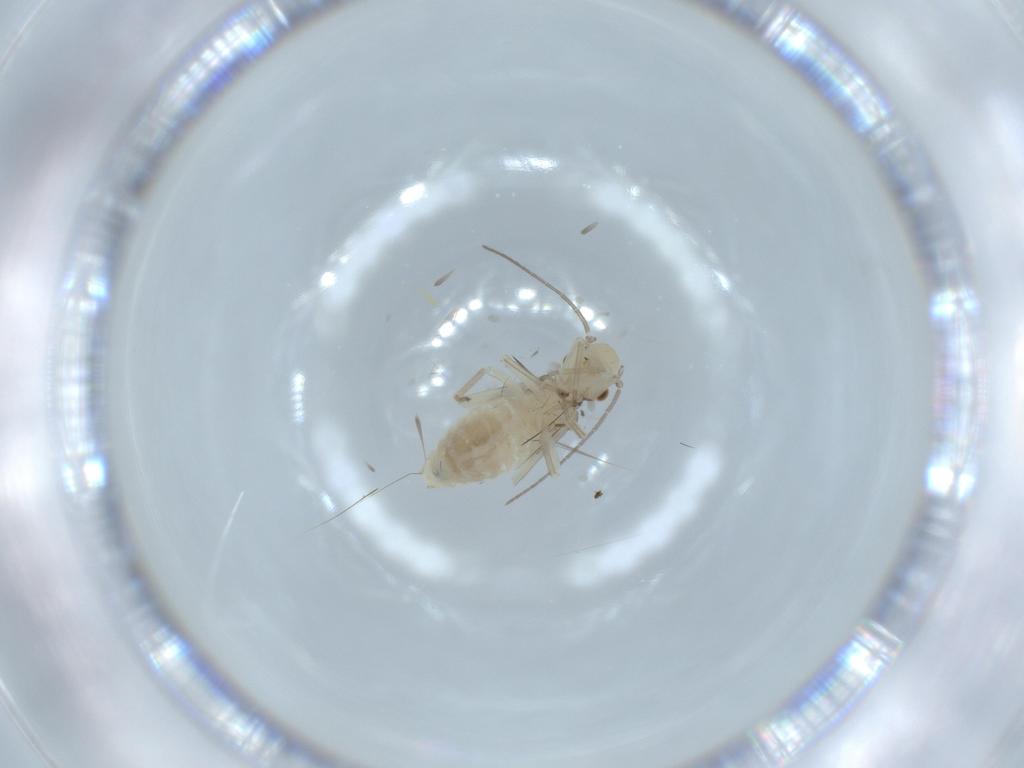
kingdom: Animalia
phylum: Arthropoda
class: Insecta
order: Psocodea
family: Caeciliusidae
